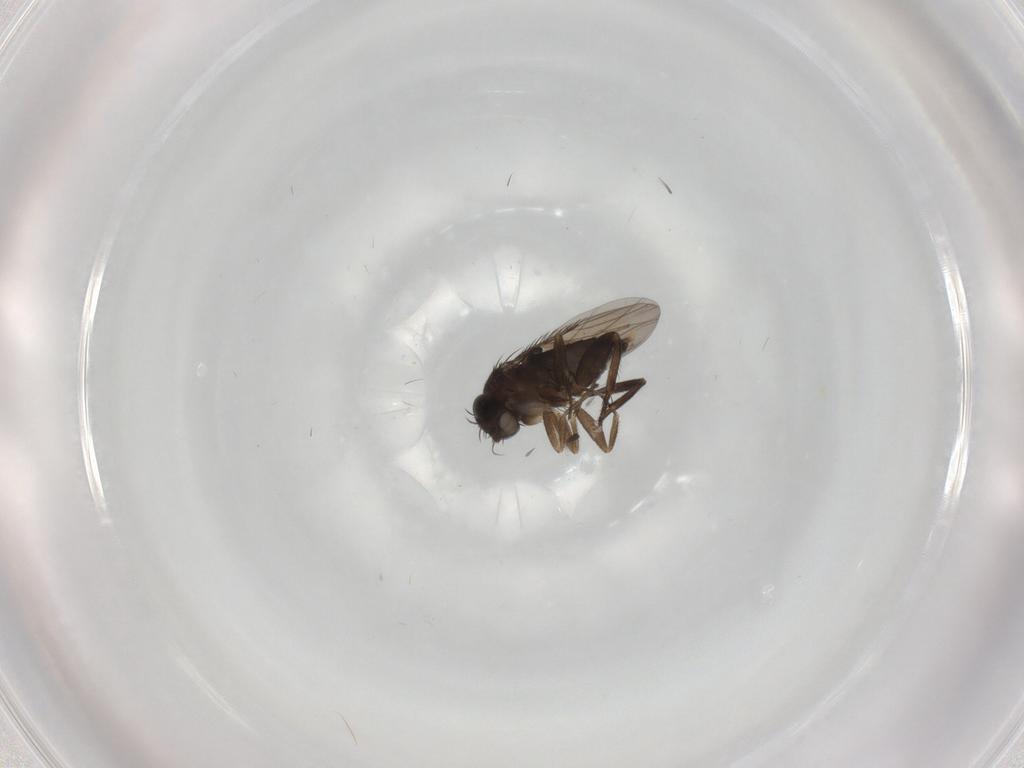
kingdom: Animalia
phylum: Arthropoda
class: Insecta
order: Diptera
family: Phoridae
